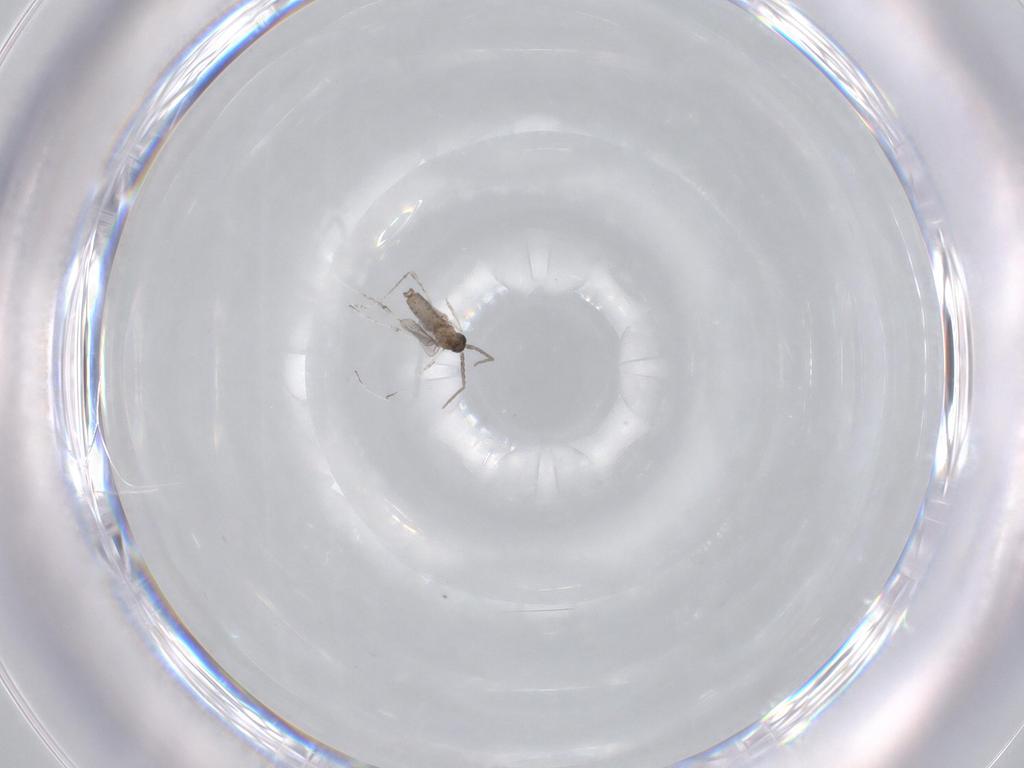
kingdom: Animalia
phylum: Arthropoda
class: Insecta
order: Diptera
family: Cecidomyiidae
